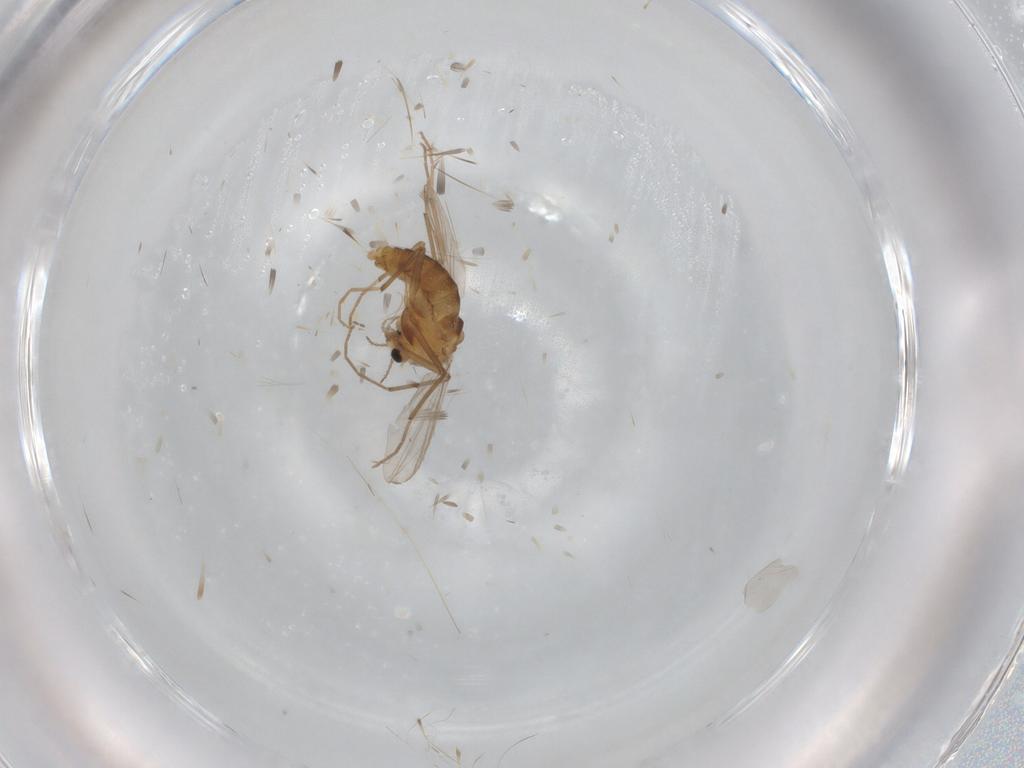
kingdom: Animalia
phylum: Arthropoda
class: Insecta
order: Diptera
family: Chironomidae
